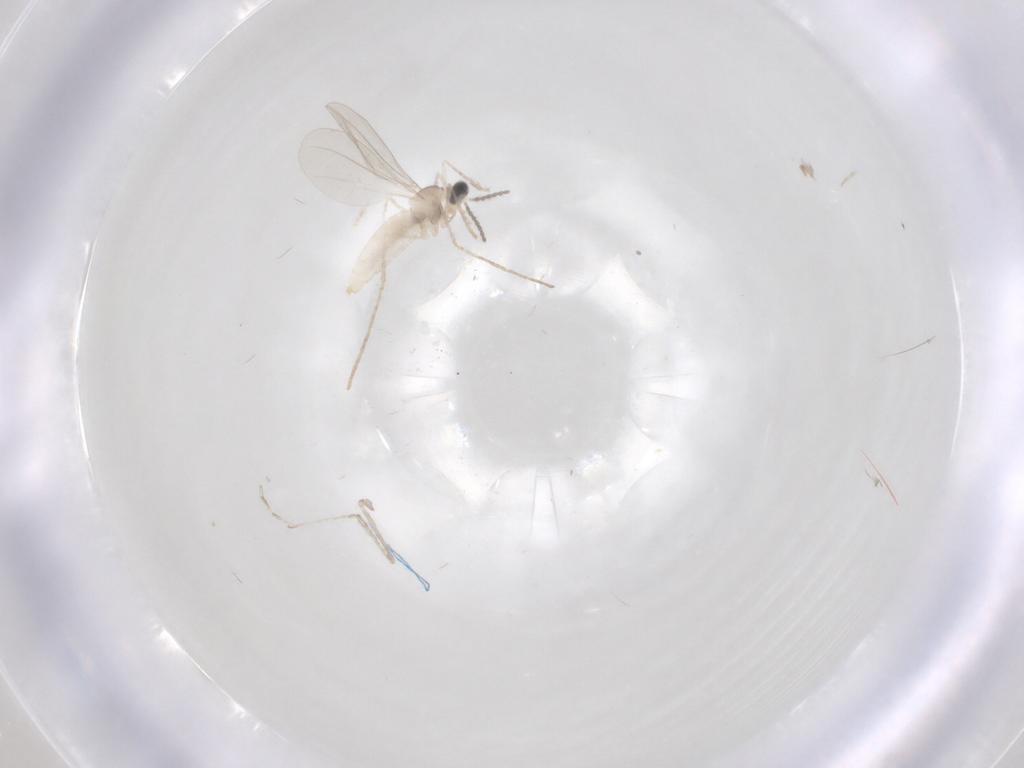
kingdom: Animalia
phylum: Arthropoda
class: Insecta
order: Diptera
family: Cecidomyiidae
